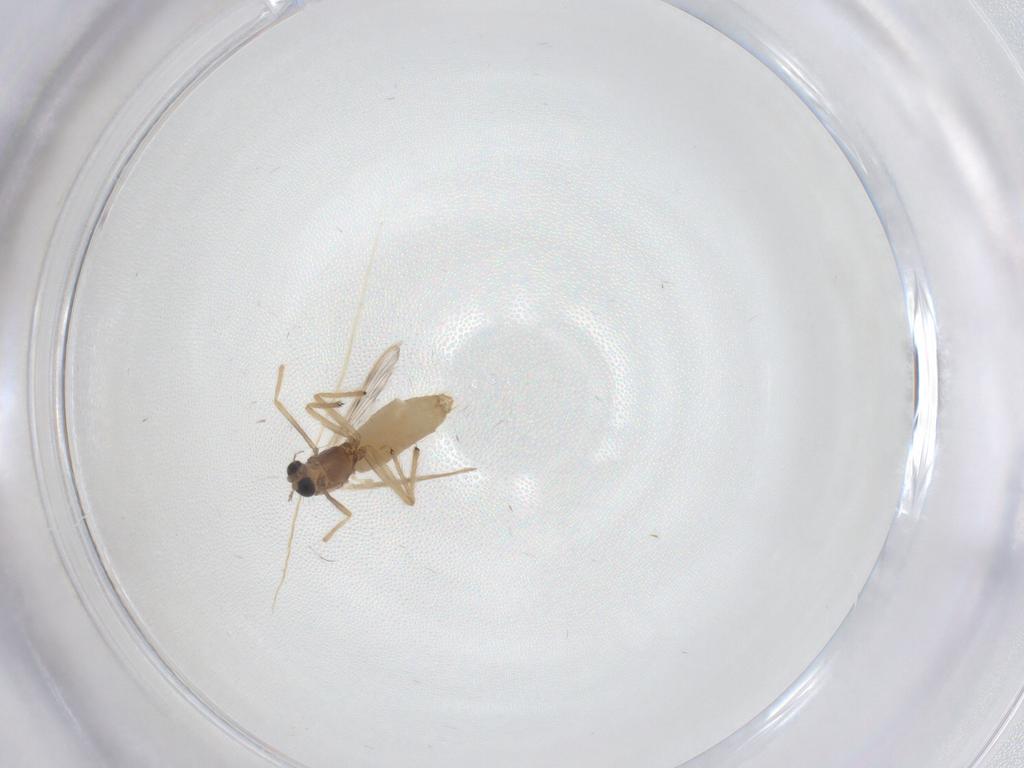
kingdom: Animalia
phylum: Arthropoda
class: Insecta
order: Diptera
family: Chironomidae
